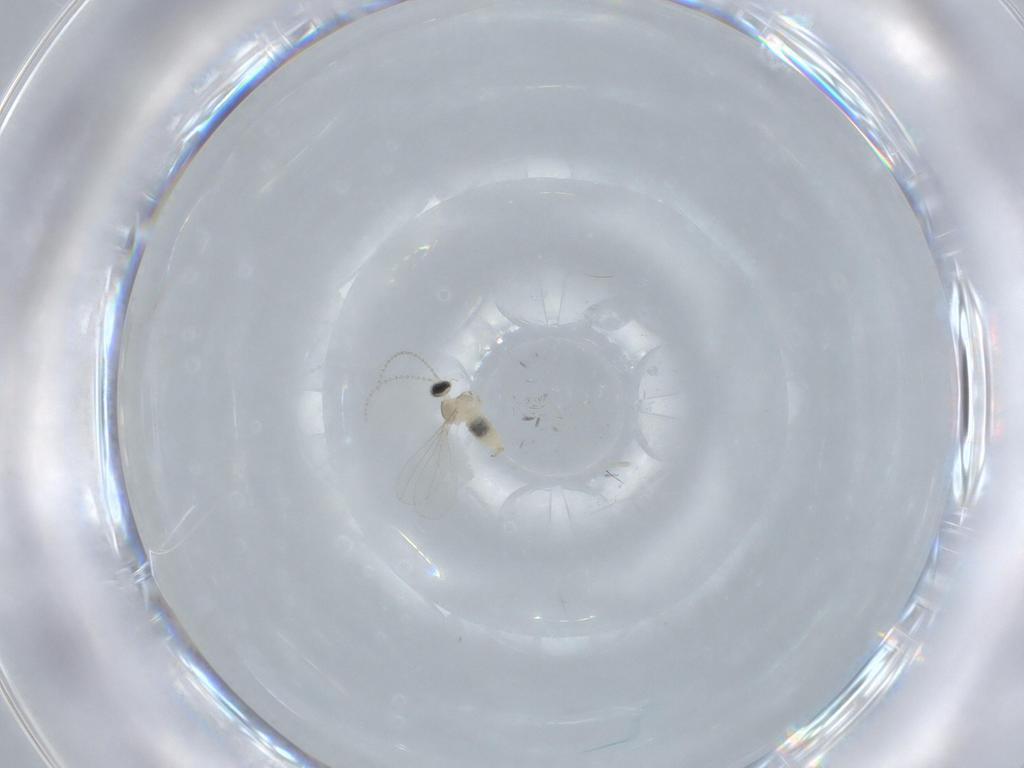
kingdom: Animalia
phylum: Arthropoda
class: Insecta
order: Diptera
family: Cecidomyiidae
